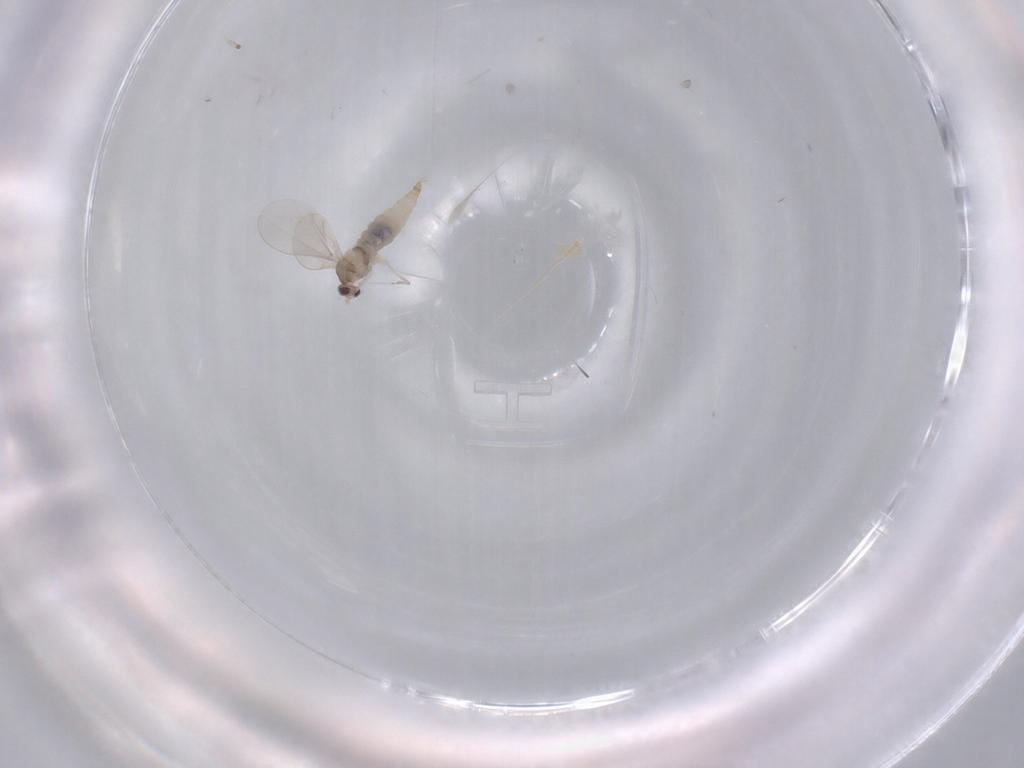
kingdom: Animalia
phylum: Arthropoda
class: Insecta
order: Diptera
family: Cecidomyiidae
